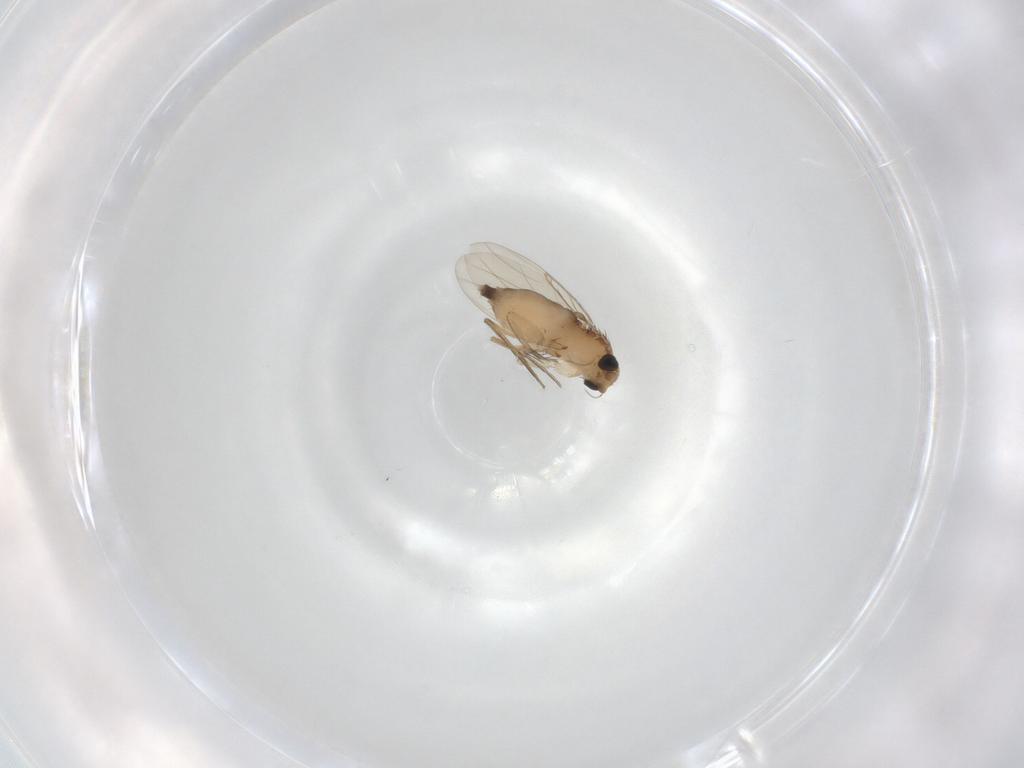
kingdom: Animalia
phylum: Arthropoda
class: Insecta
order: Diptera
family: Phoridae
